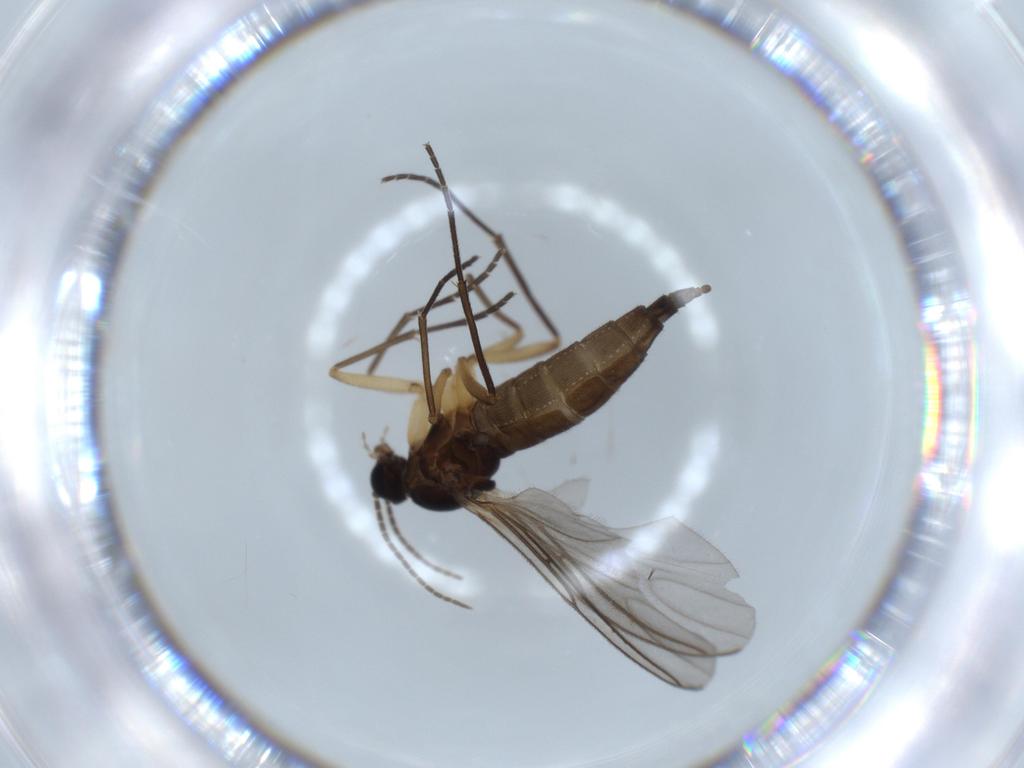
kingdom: Animalia
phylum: Arthropoda
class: Insecta
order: Diptera
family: Sciaridae
